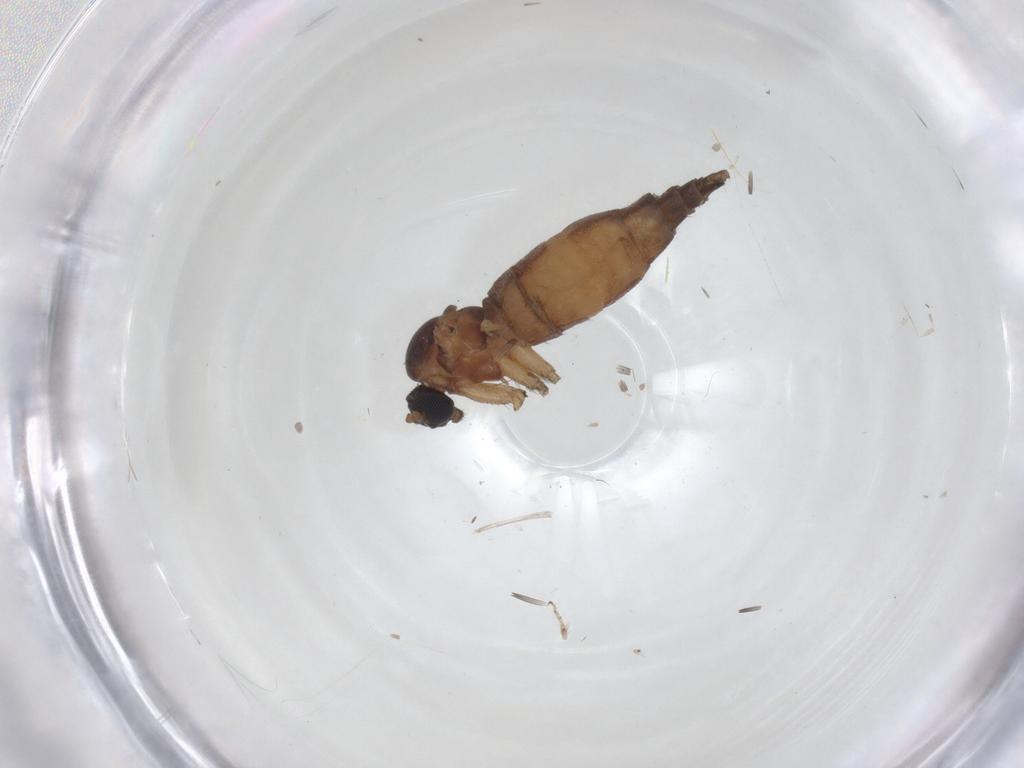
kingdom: Animalia
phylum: Arthropoda
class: Insecta
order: Diptera
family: Sciaridae
